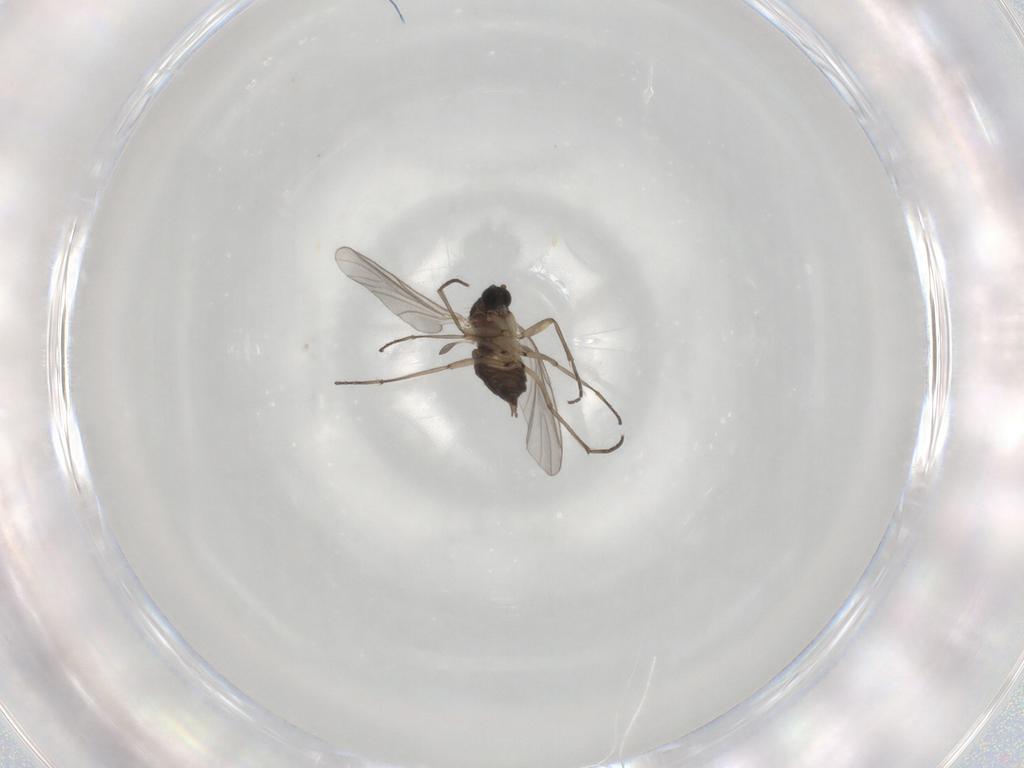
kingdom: Animalia
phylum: Arthropoda
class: Insecta
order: Diptera
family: Sciaridae
